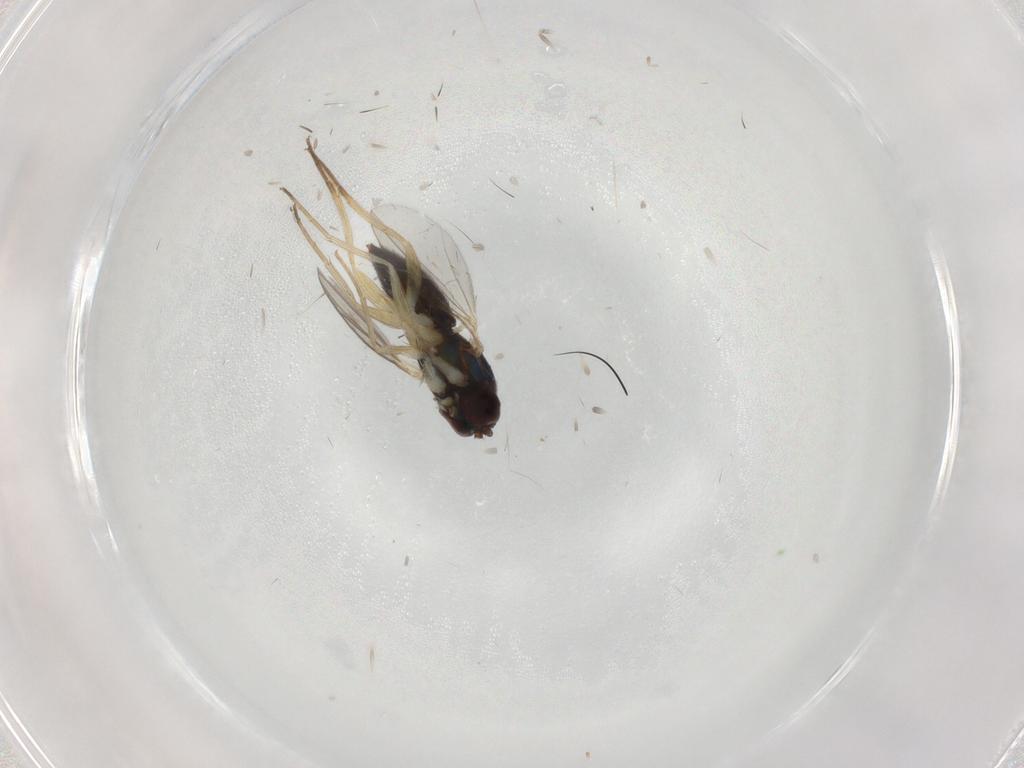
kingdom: Animalia
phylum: Arthropoda
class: Insecta
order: Diptera
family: Dolichopodidae
